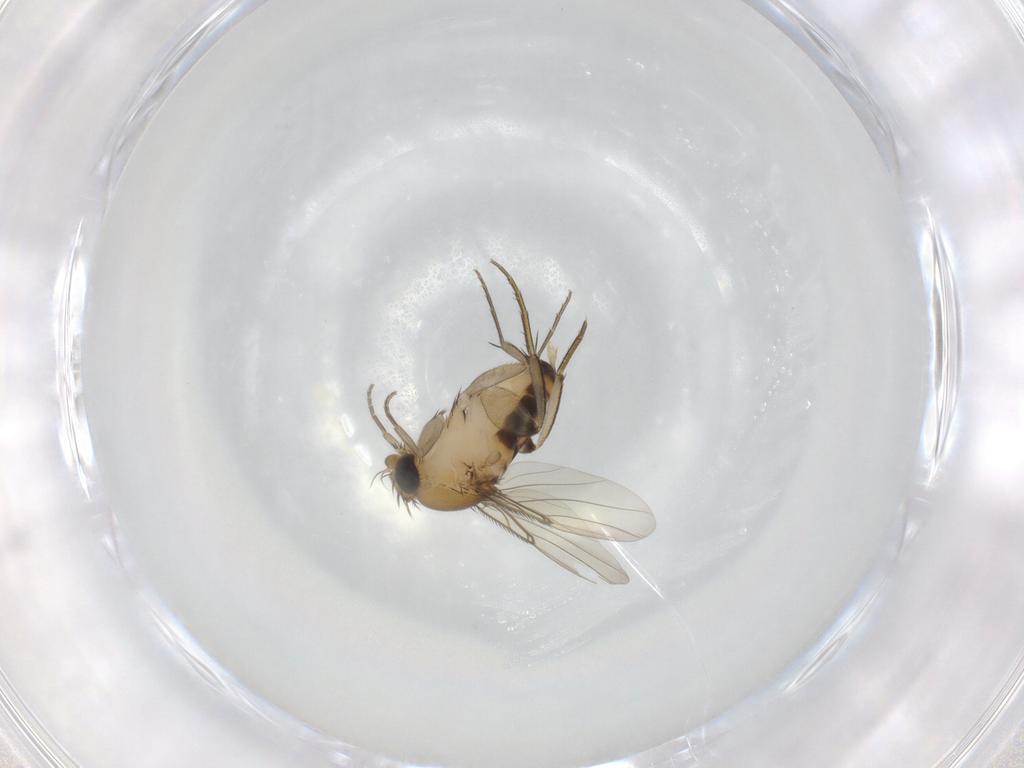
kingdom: Animalia
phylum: Arthropoda
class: Insecta
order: Diptera
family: Phoridae
